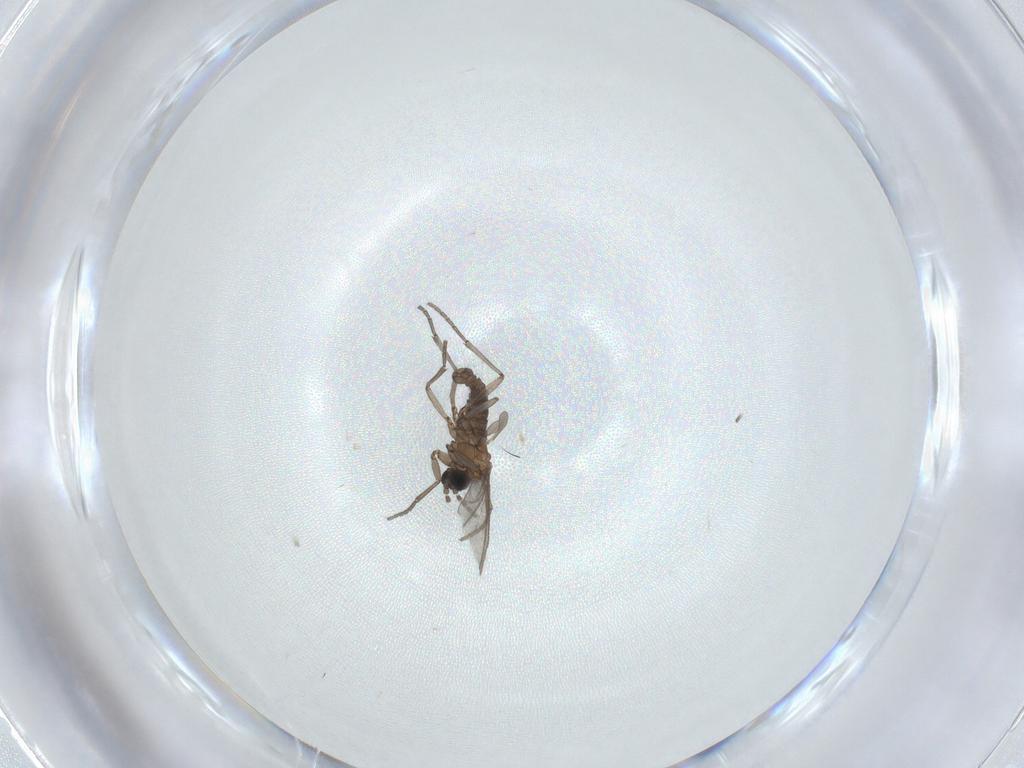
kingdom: Animalia
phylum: Arthropoda
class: Insecta
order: Diptera
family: Sciaridae
